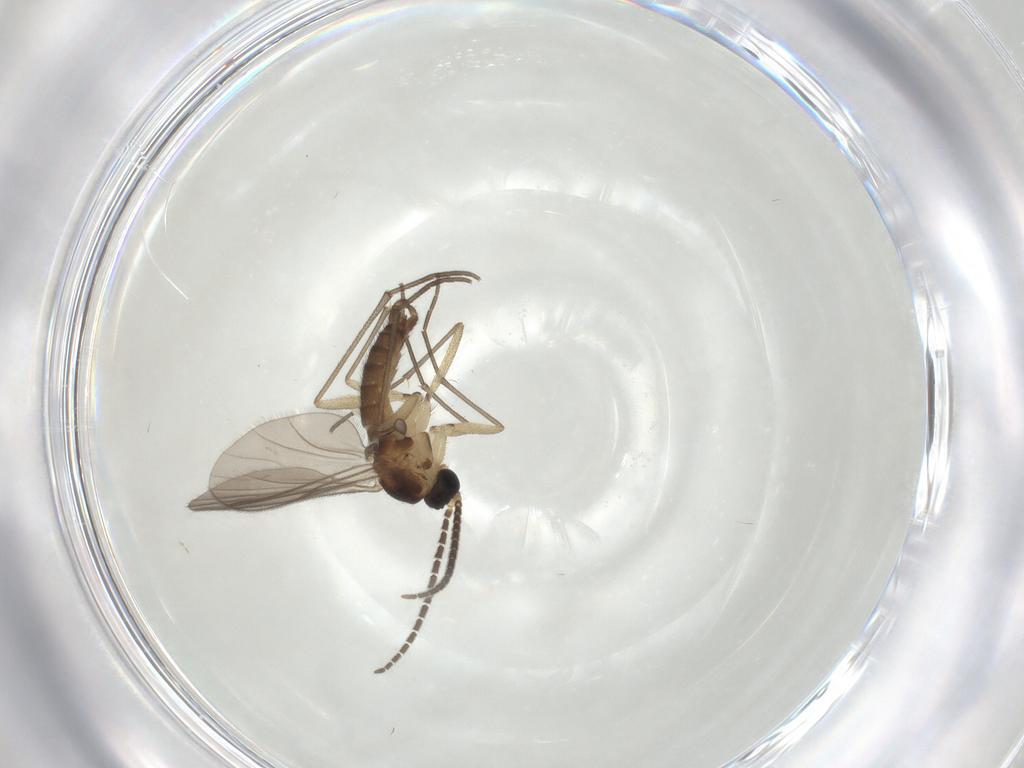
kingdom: Animalia
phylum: Arthropoda
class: Insecta
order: Diptera
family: Sciaridae
